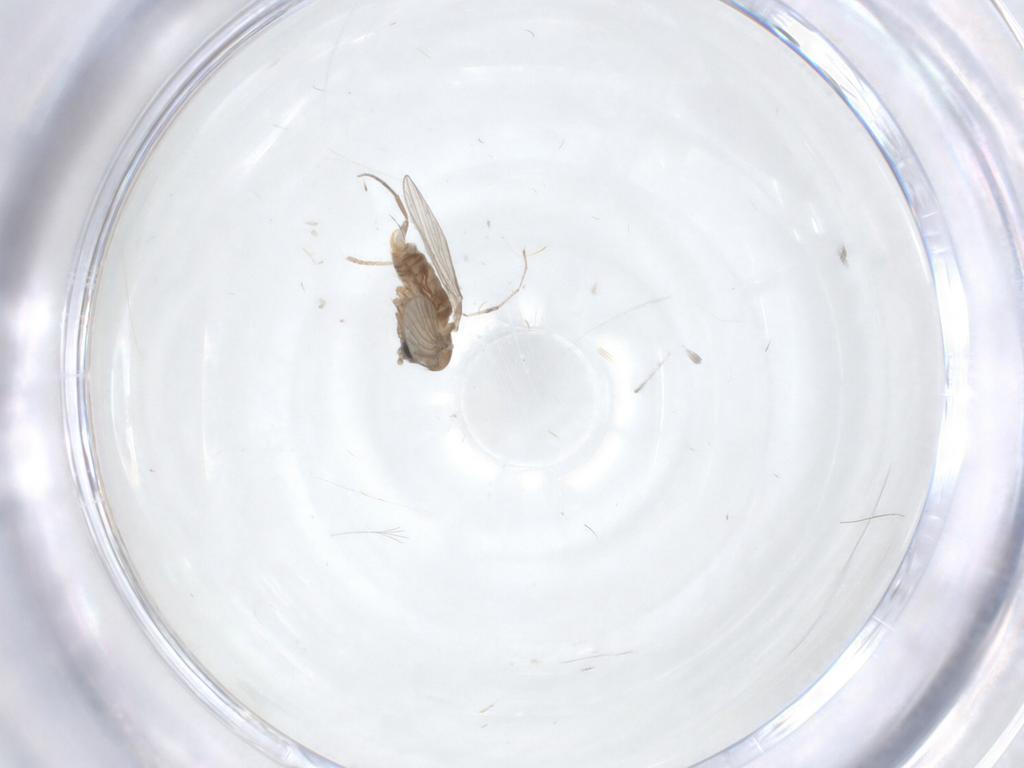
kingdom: Animalia
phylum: Arthropoda
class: Insecta
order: Diptera
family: Psychodidae
